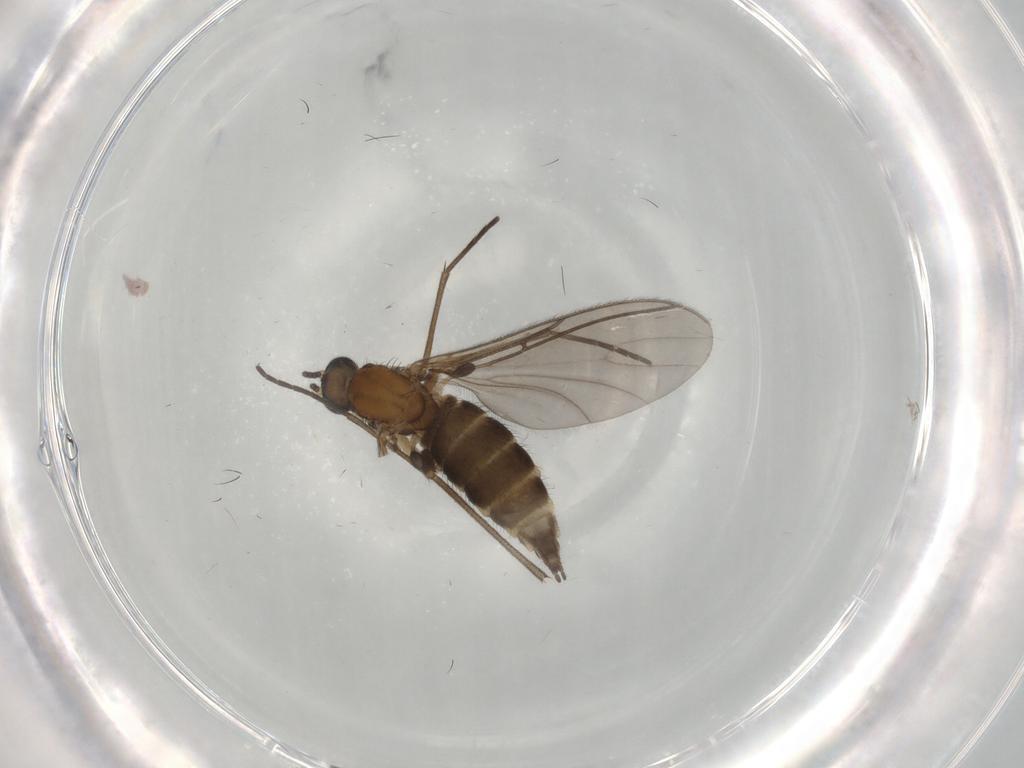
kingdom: Animalia
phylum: Arthropoda
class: Insecta
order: Diptera
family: Sciaridae
